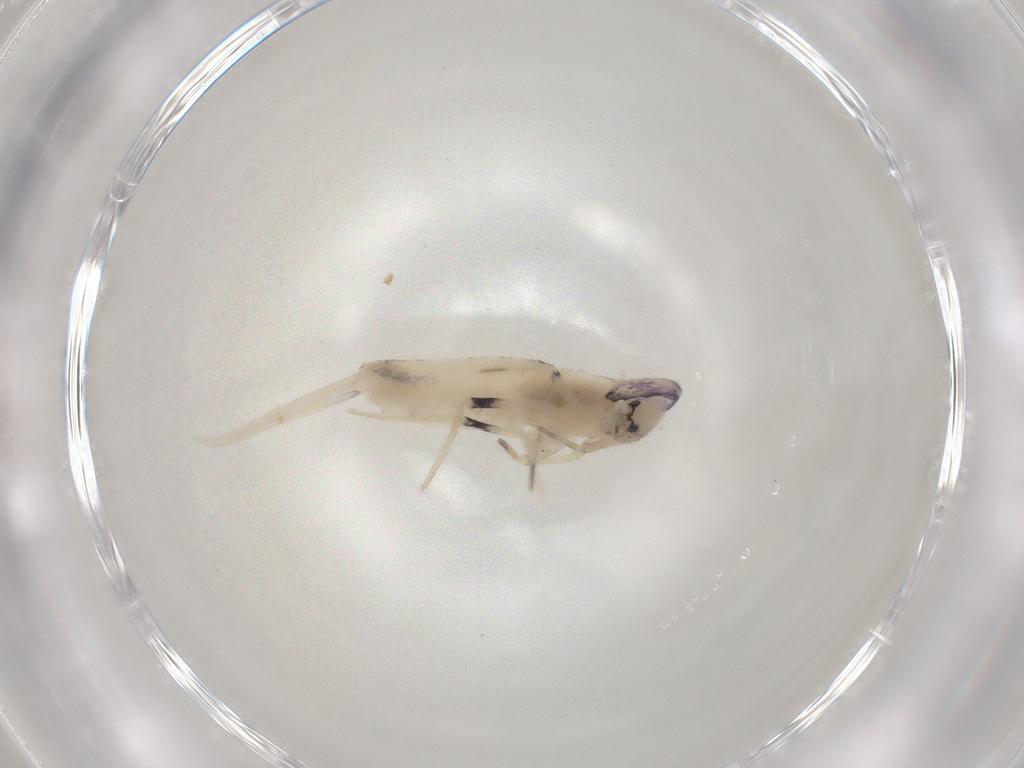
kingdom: Animalia
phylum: Arthropoda
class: Collembola
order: Entomobryomorpha
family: Entomobryidae
